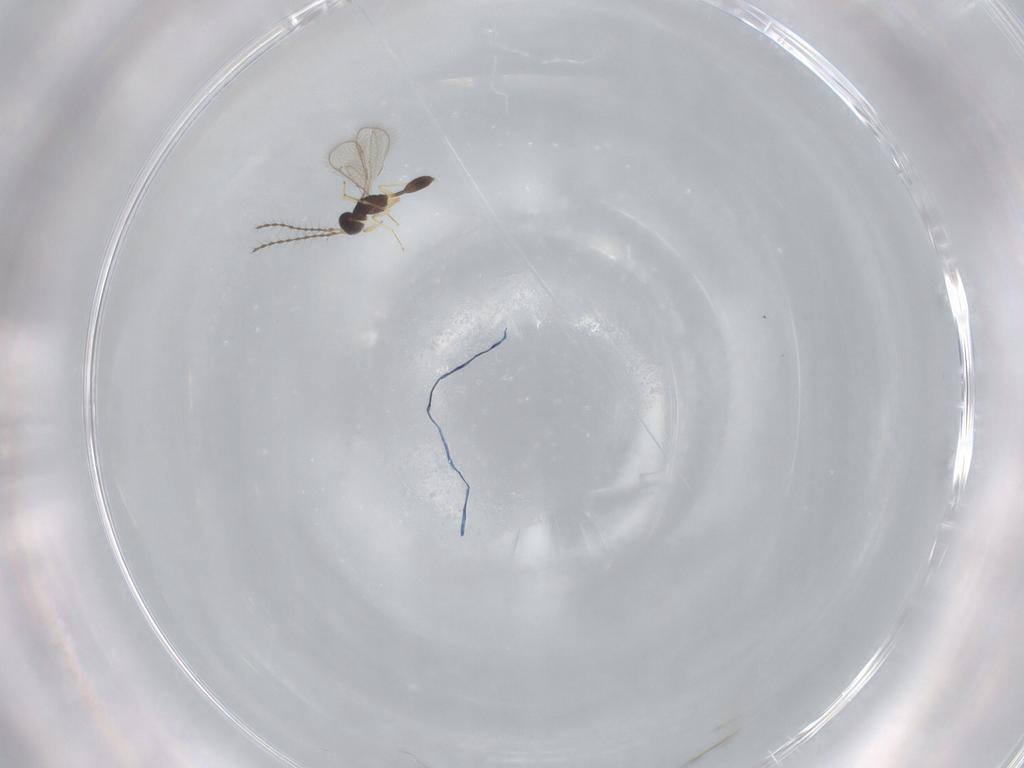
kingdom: Animalia
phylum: Arthropoda
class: Insecta
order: Hymenoptera
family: Diparidae
